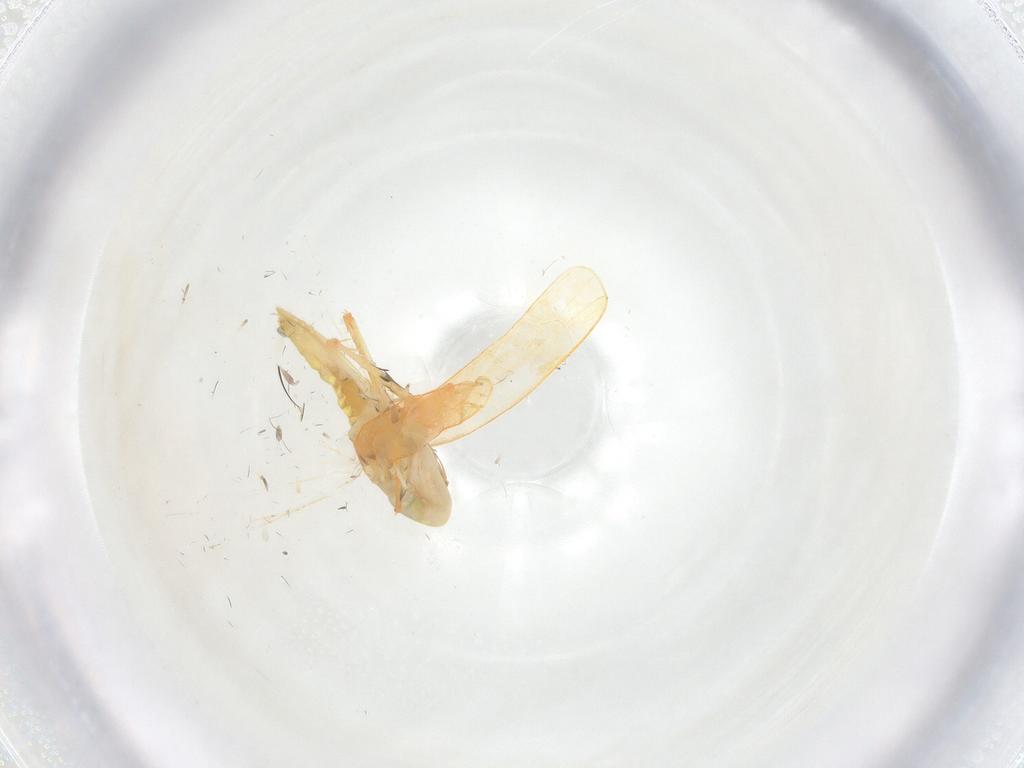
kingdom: Animalia
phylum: Arthropoda
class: Insecta
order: Hemiptera
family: Cicadellidae
